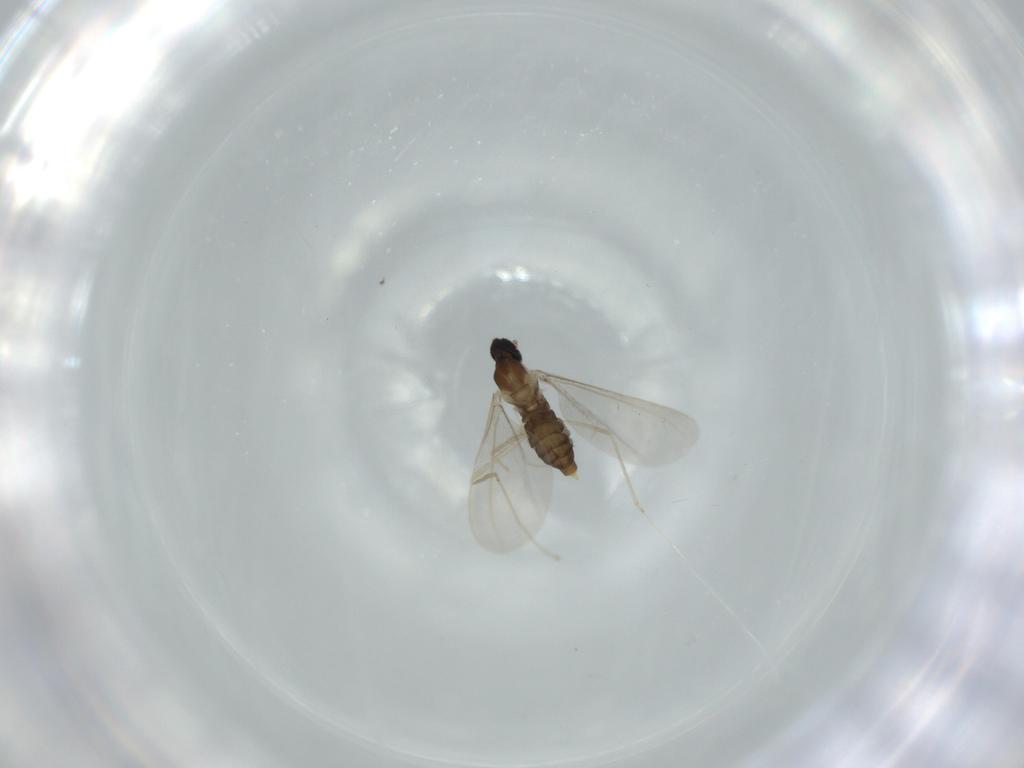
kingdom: Animalia
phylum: Arthropoda
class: Insecta
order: Diptera
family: Cecidomyiidae
